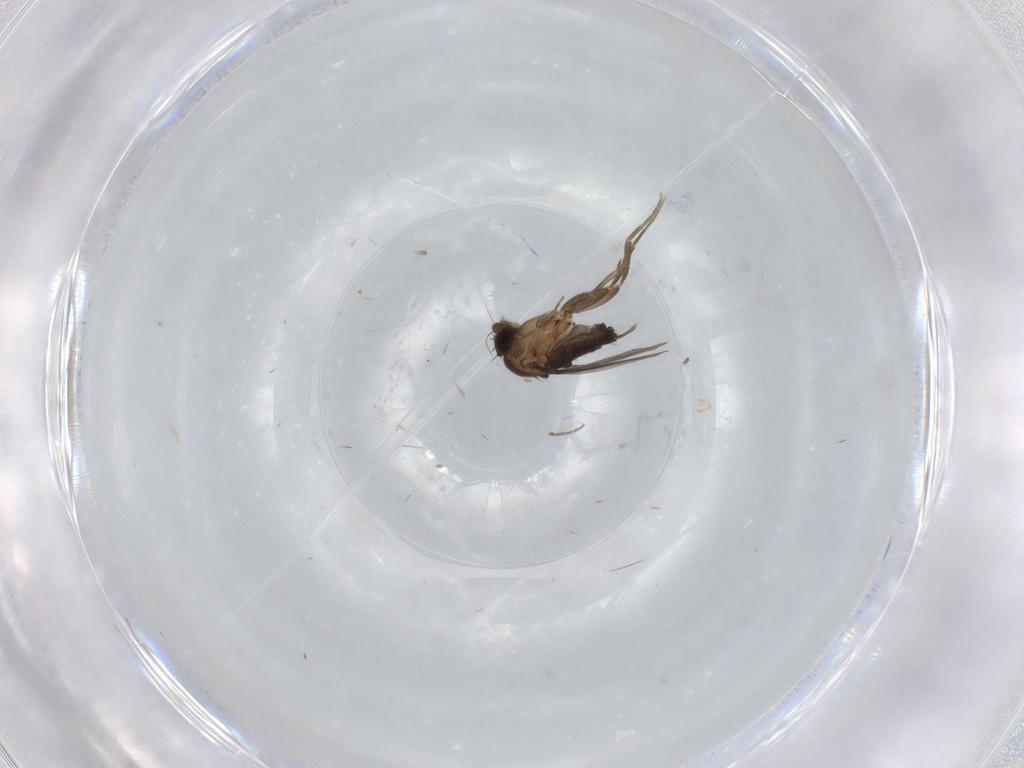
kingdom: Animalia
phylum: Arthropoda
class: Insecta
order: Diptera
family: Phoridae
